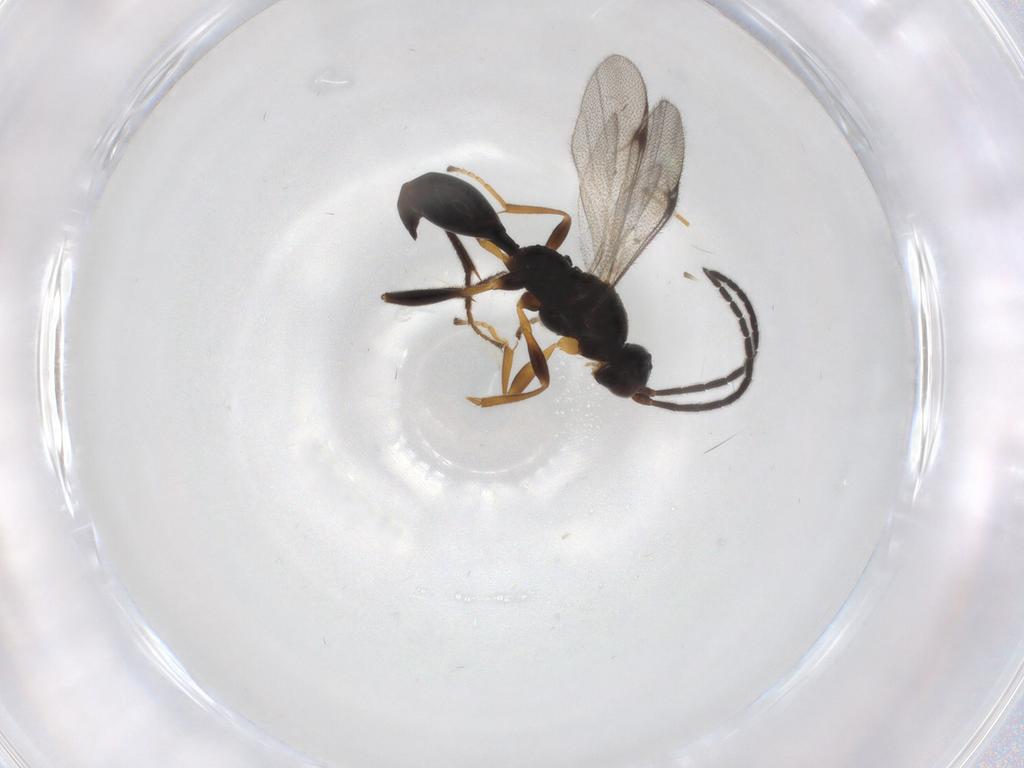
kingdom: Animalia
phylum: Arthropoda
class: Insecta
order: Hymenoptera
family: Proctotrupidae
